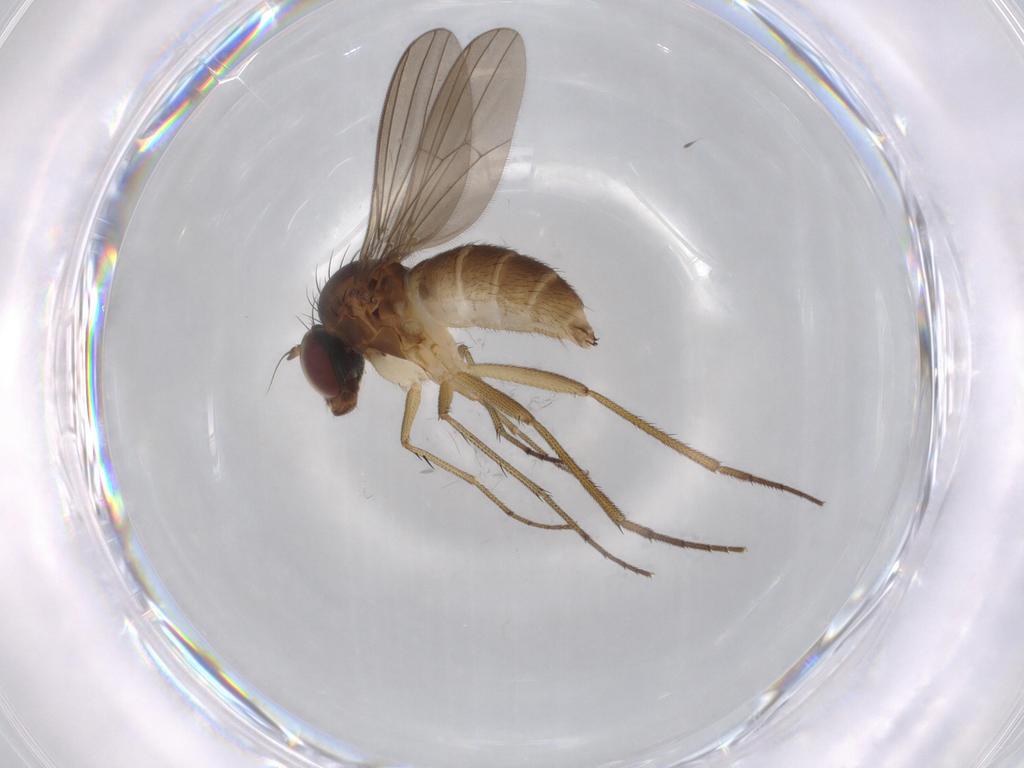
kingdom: Animalia
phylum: Arthropoda
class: Insecta
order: Diptera
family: Dolichopodidae
